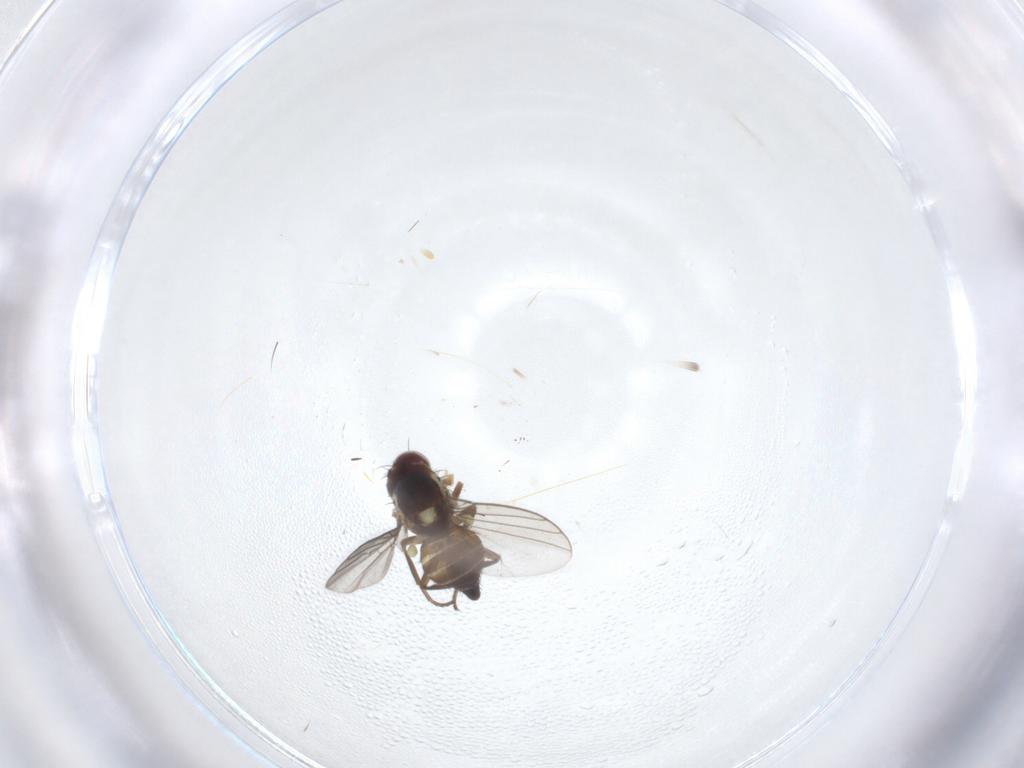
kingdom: Animalia
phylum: Arthropoda
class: Insecta
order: Diptera
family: Agromyzidae
